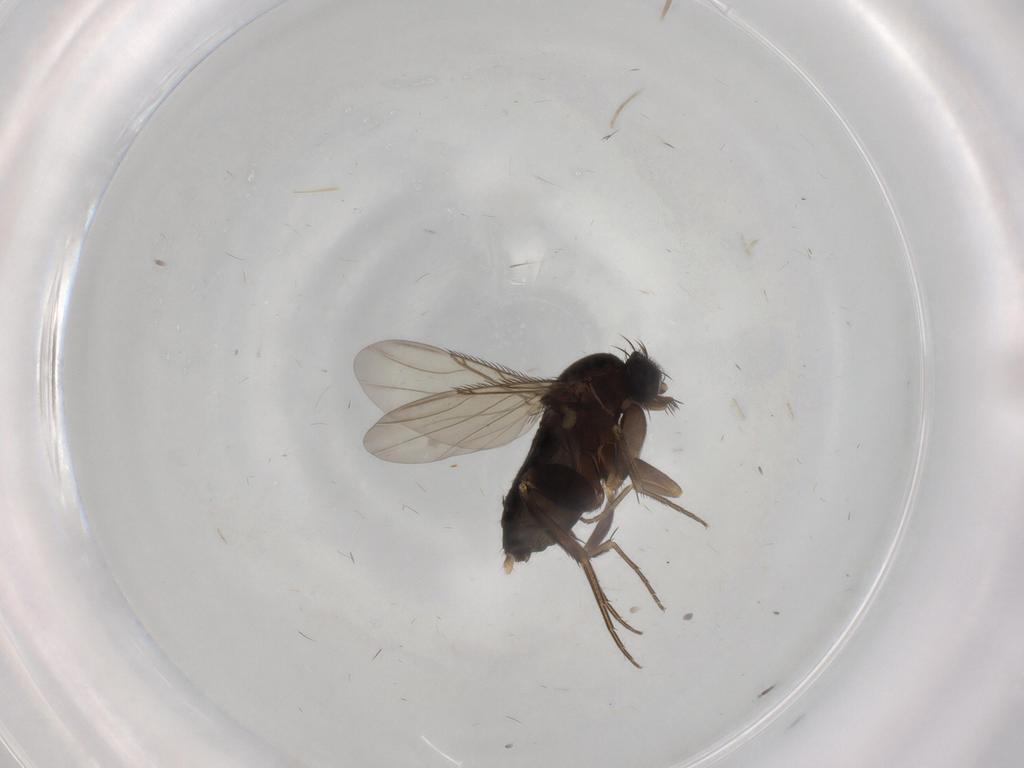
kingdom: Animalia
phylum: Arthropoda
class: Insecta
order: Diptera
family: Phoridae
